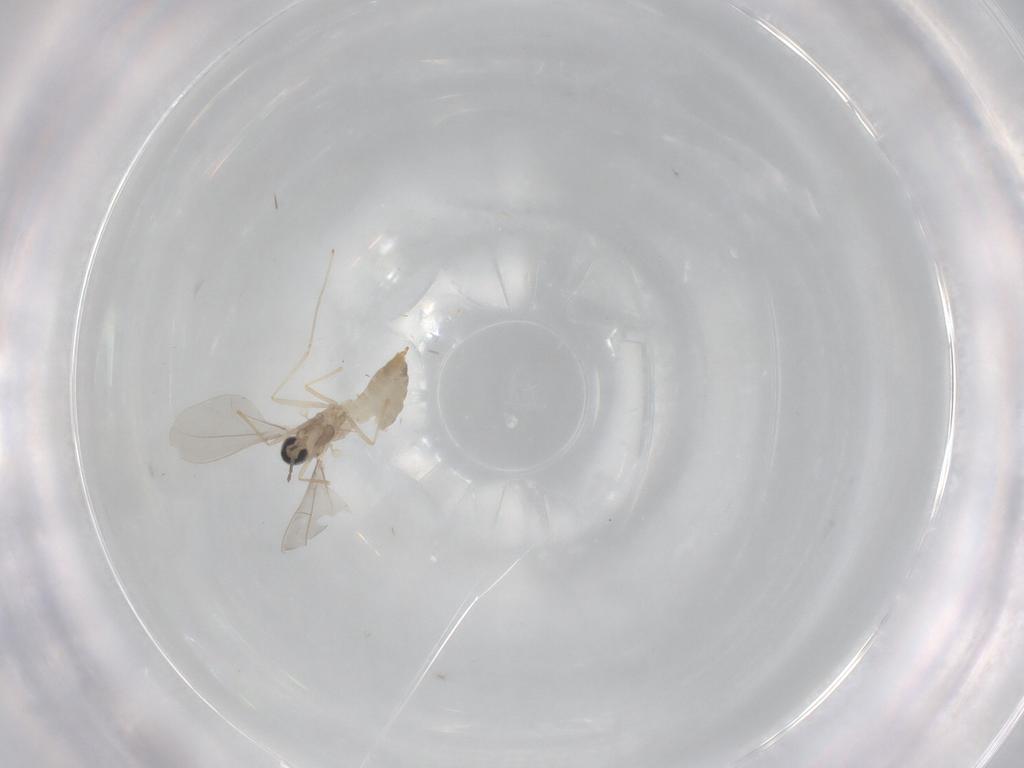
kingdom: Animalia
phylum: Arthropoda
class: Insecta
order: Diptera
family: Cecidomyiidae
